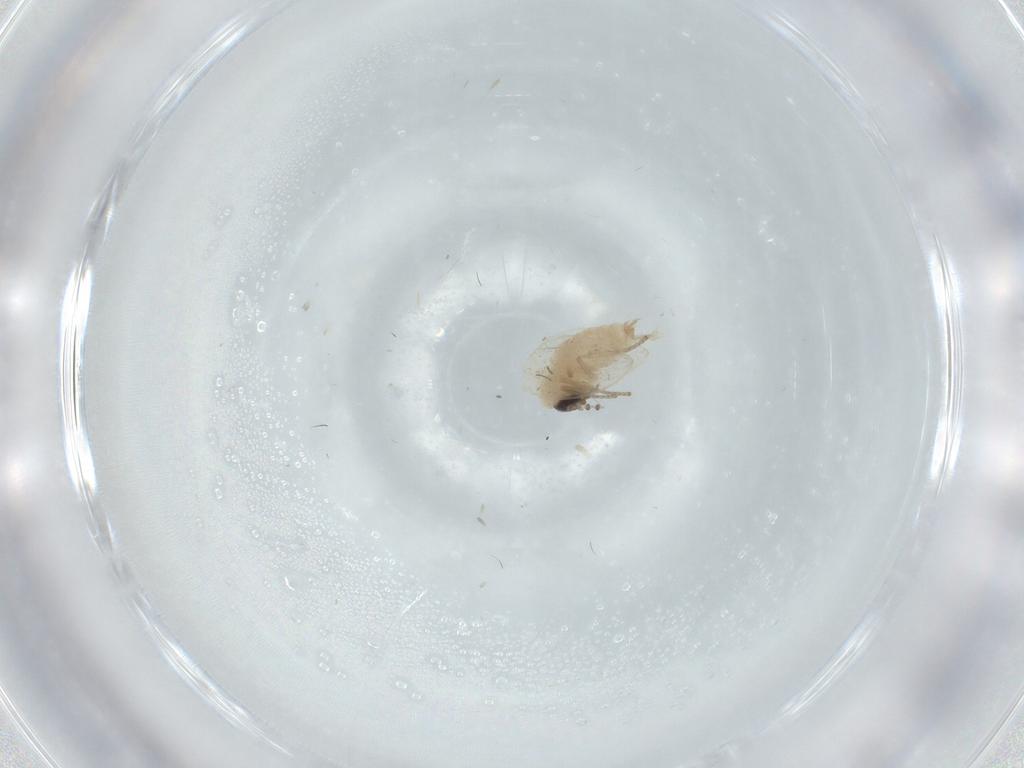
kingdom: Animalia
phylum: Arthropoda
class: Insecta
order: Diptera
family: Psychodidae
